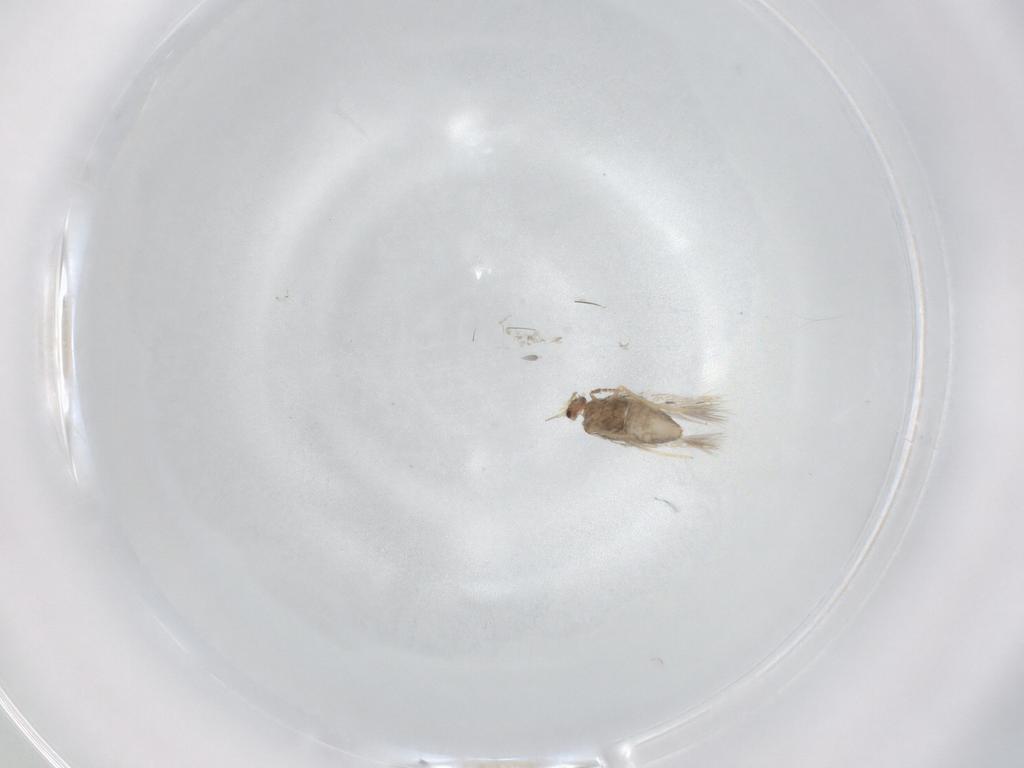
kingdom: Animalia
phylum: Arthropoda
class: Insecta
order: Lepidoptera
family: Nepticulidae
